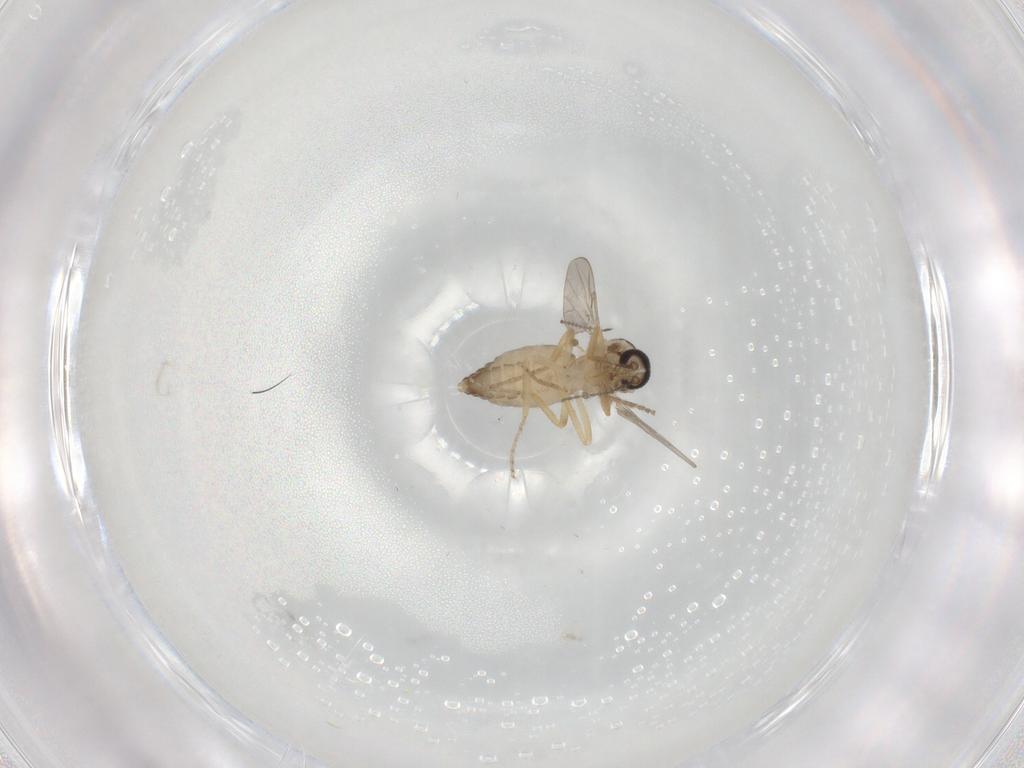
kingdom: Animalia
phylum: Arthropoda
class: Insecta
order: Diptera
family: Ceratopogonidae
